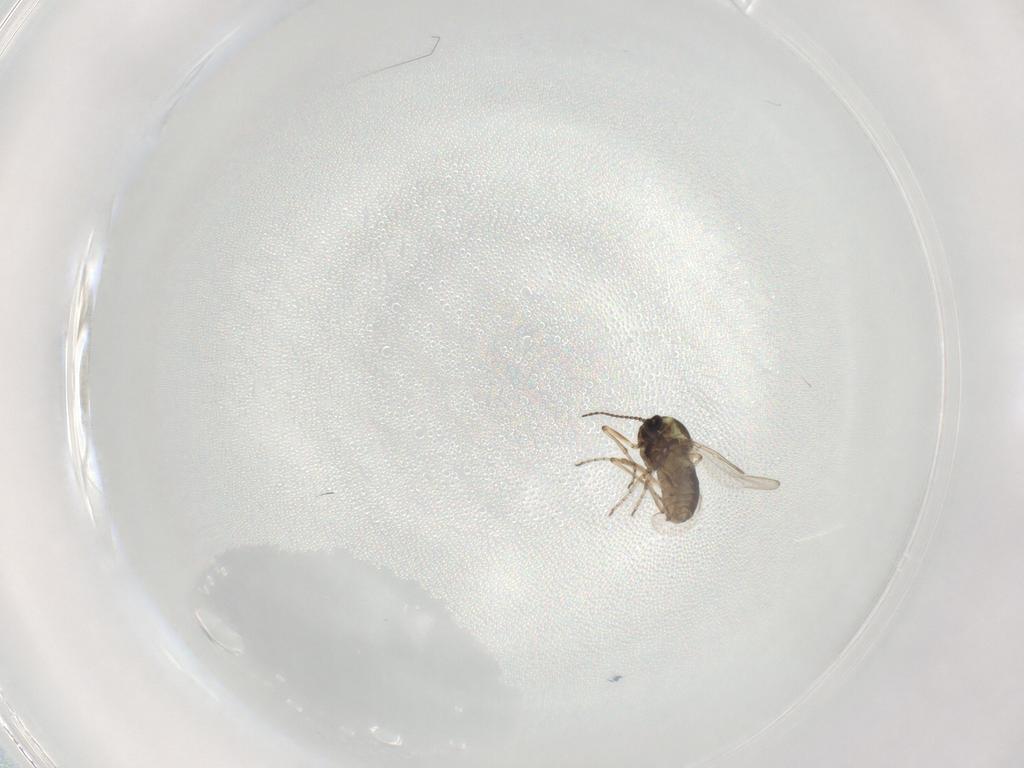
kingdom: Animalia
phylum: Arthropoda
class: Insecta
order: Diptera
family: Ceratopogonidae
